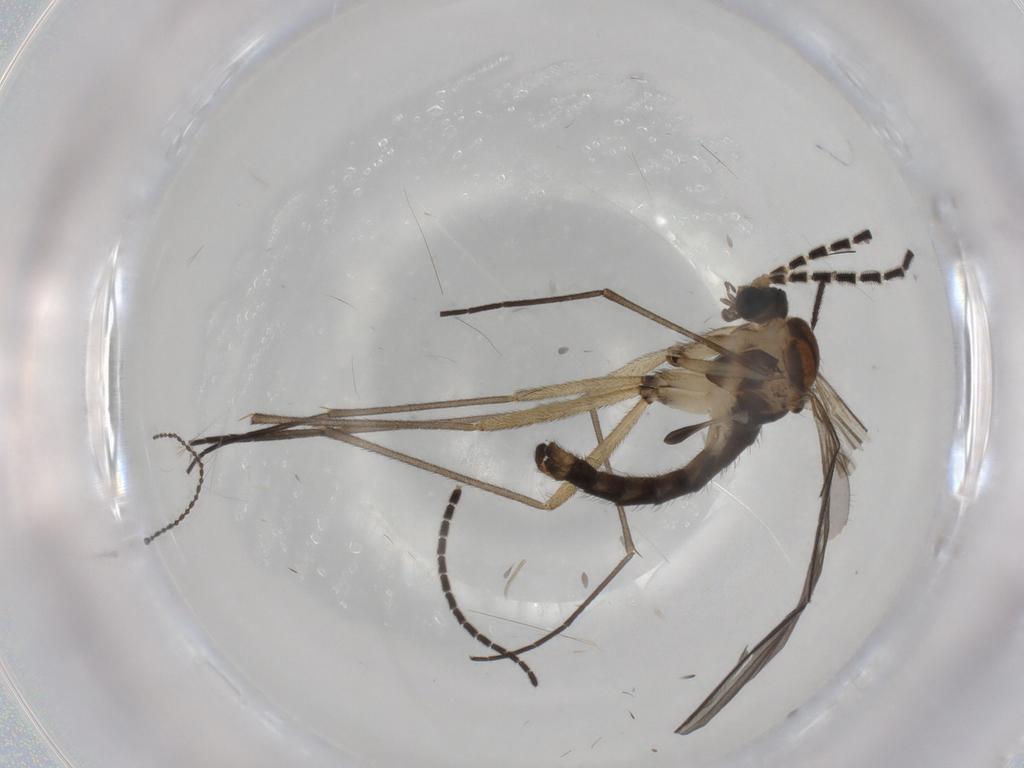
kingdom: Animalia
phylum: Arthropoda
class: Insecta
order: Diptera
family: Sciaridae
